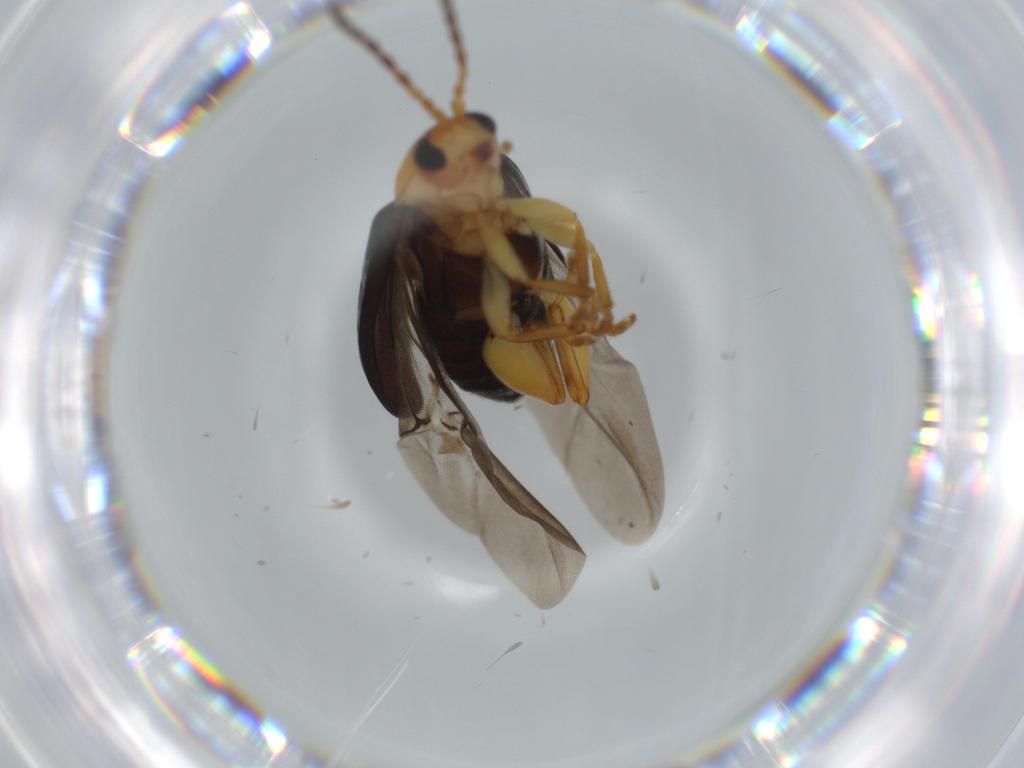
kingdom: Animalia
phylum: Arthropoda
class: Insecta
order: Coleoptera
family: Chrysomelidae
